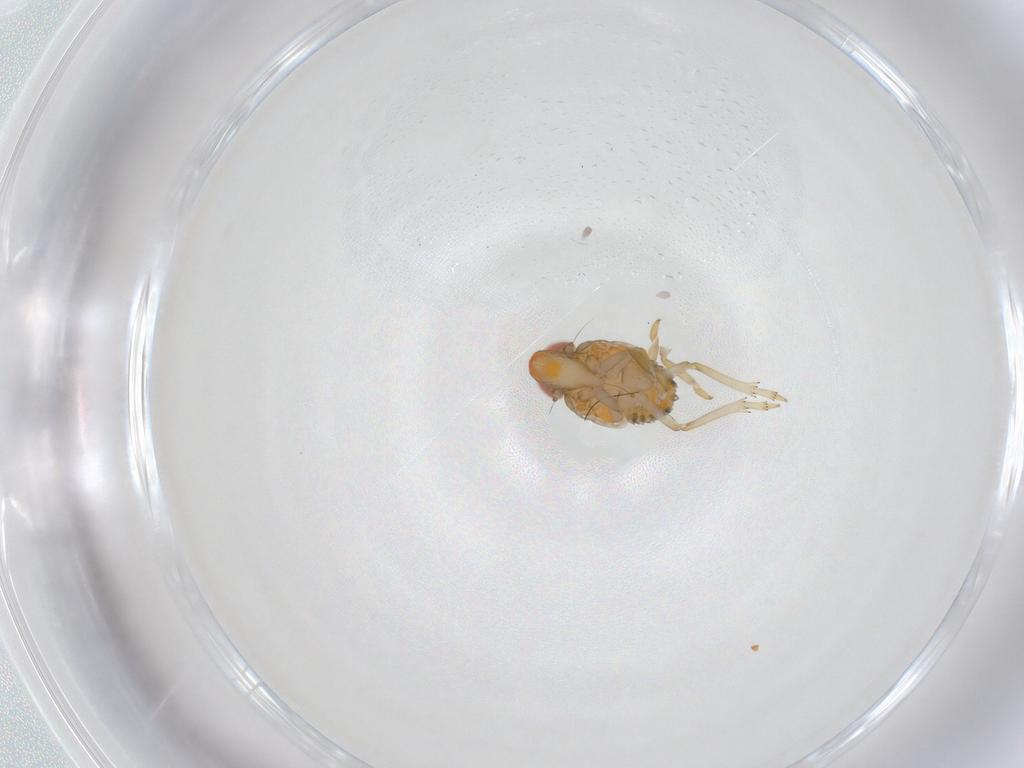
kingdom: Animalia
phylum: Arthropoda
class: Insecta
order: Hemiptera
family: Fulgoroidea_incertae_sedis
